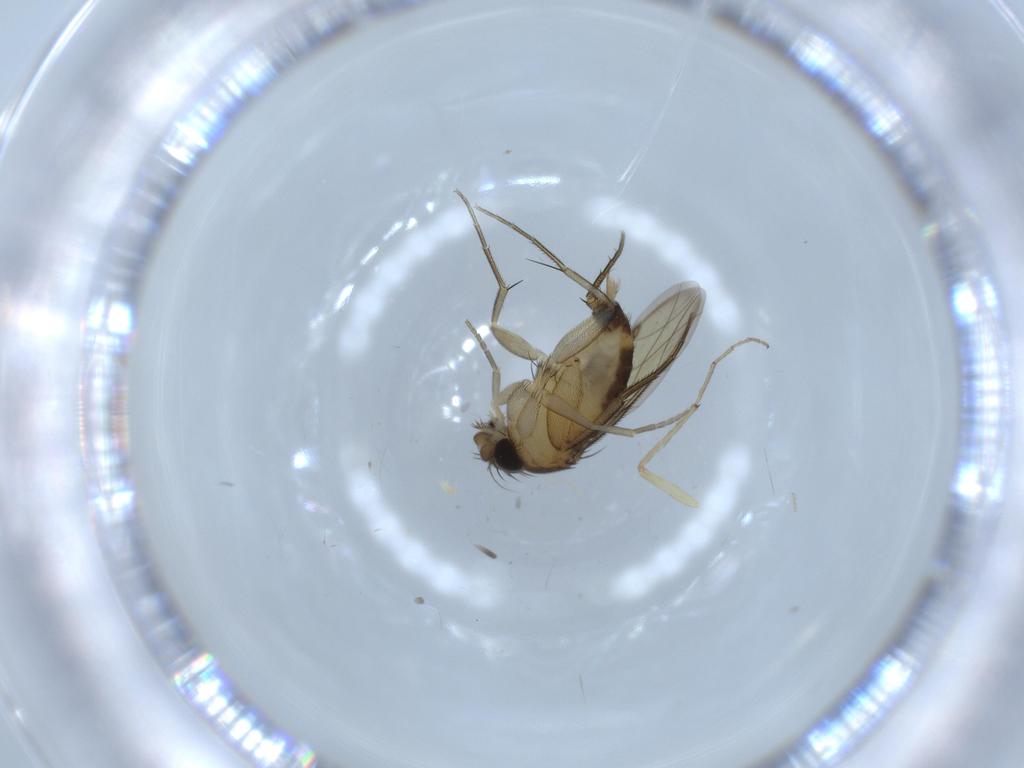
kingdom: Animalia
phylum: Arthropoda
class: Insecta
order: Diptera
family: Chironomidae
